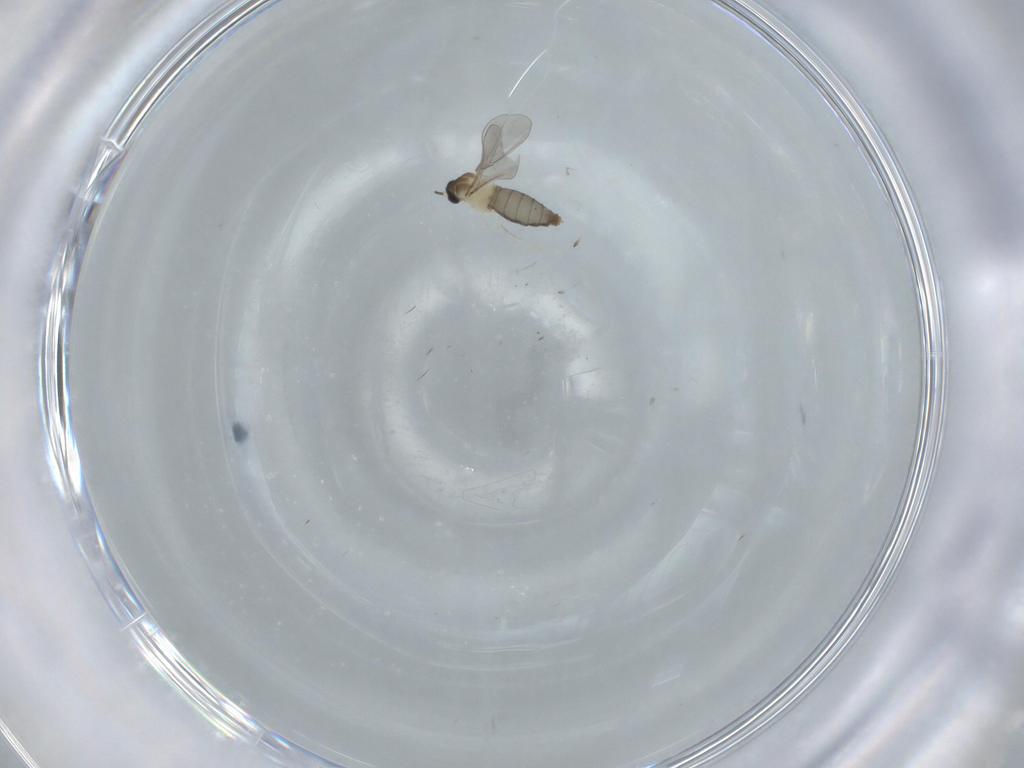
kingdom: Animalia
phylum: Arthropoda
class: Insecta
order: Diptera
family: Cecidomyiidae
